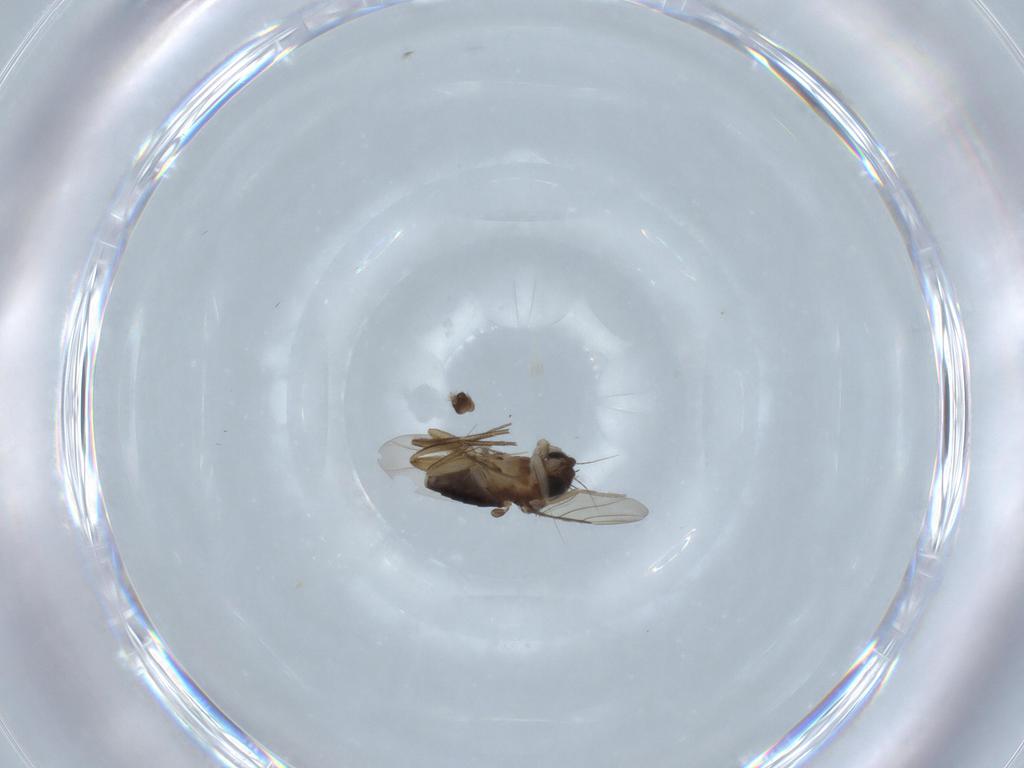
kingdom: Animalia
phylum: Arthropoda
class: Insecta
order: Diptera
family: Phoridae
